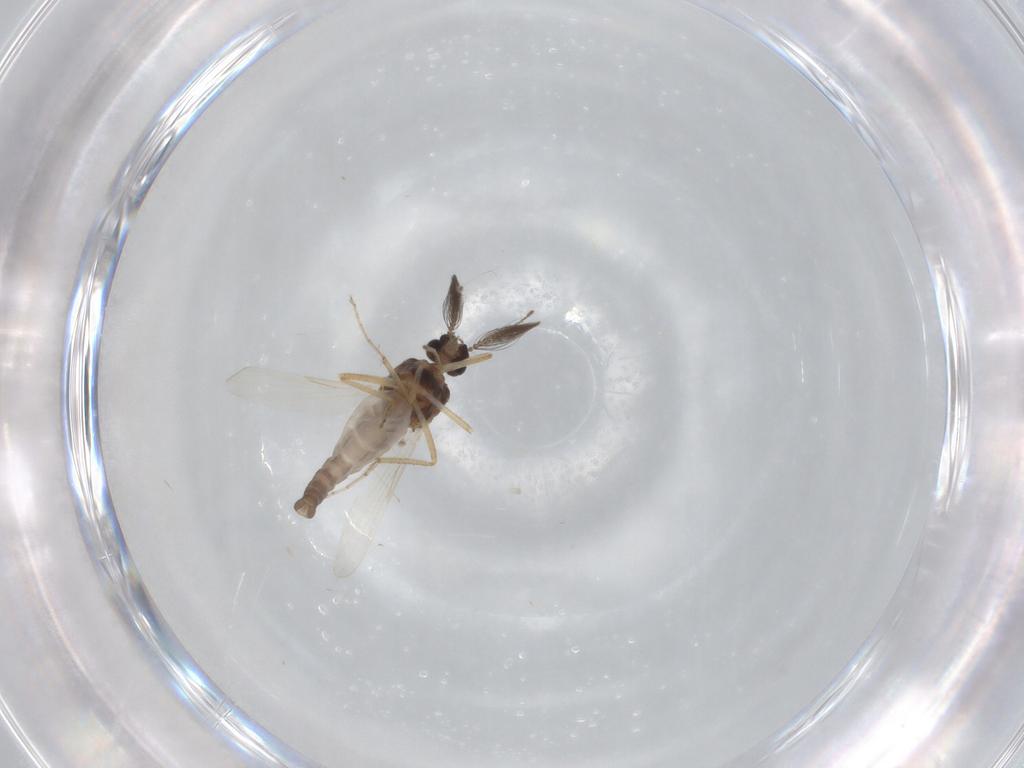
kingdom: Animalia
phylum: Arthropoda
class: Insecta
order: Diptera
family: Ceratopogonidae
